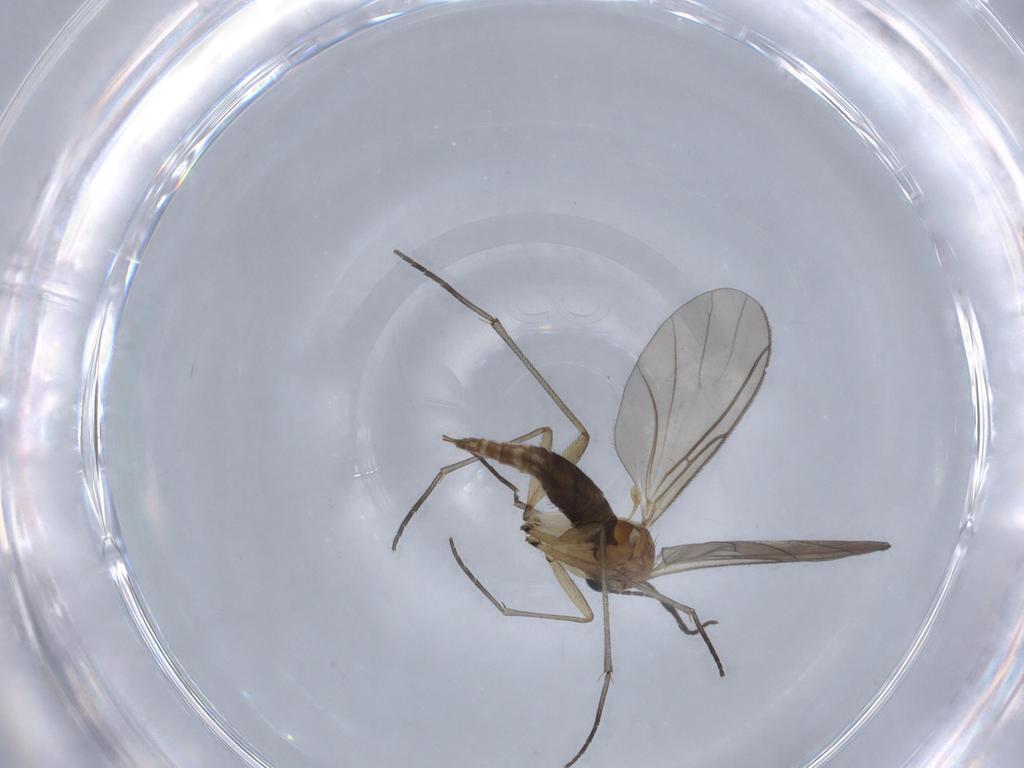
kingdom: Animalia
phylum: Arthropoda
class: Insecta
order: Diptera
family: Sciaridae
